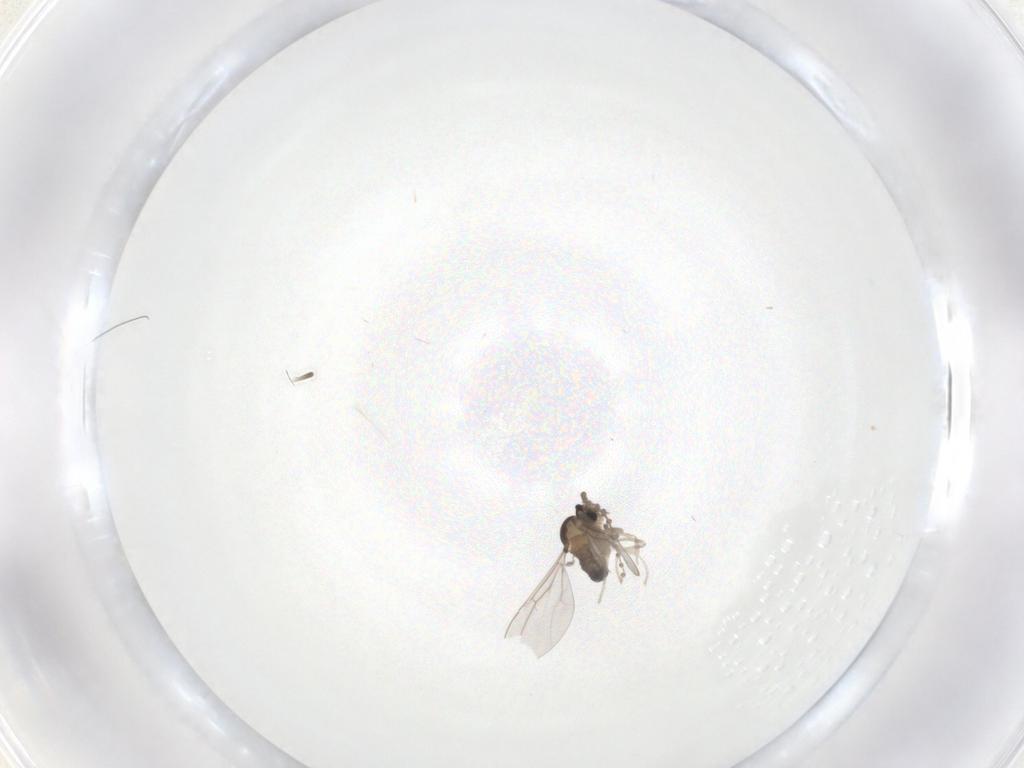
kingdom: Animalia
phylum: Arthropoda
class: Insecta
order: Diptera
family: Cecidomyiidae
